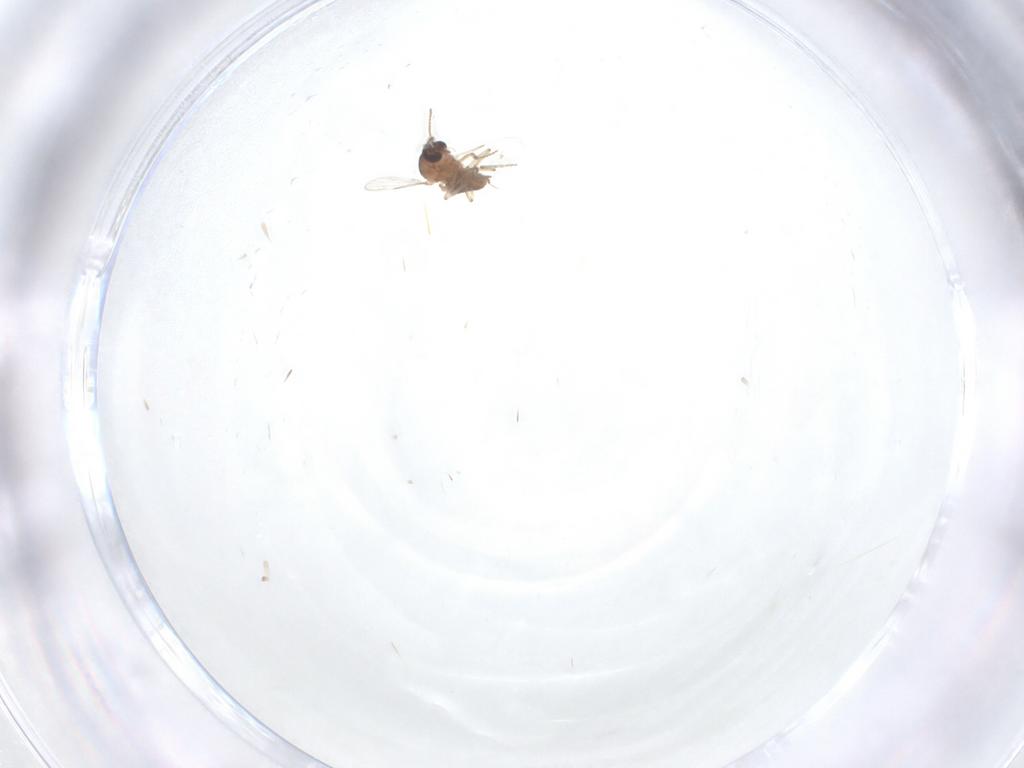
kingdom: Animalia
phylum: Arthropoda
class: Insecta
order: Diptera
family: Ceratopogonidae
